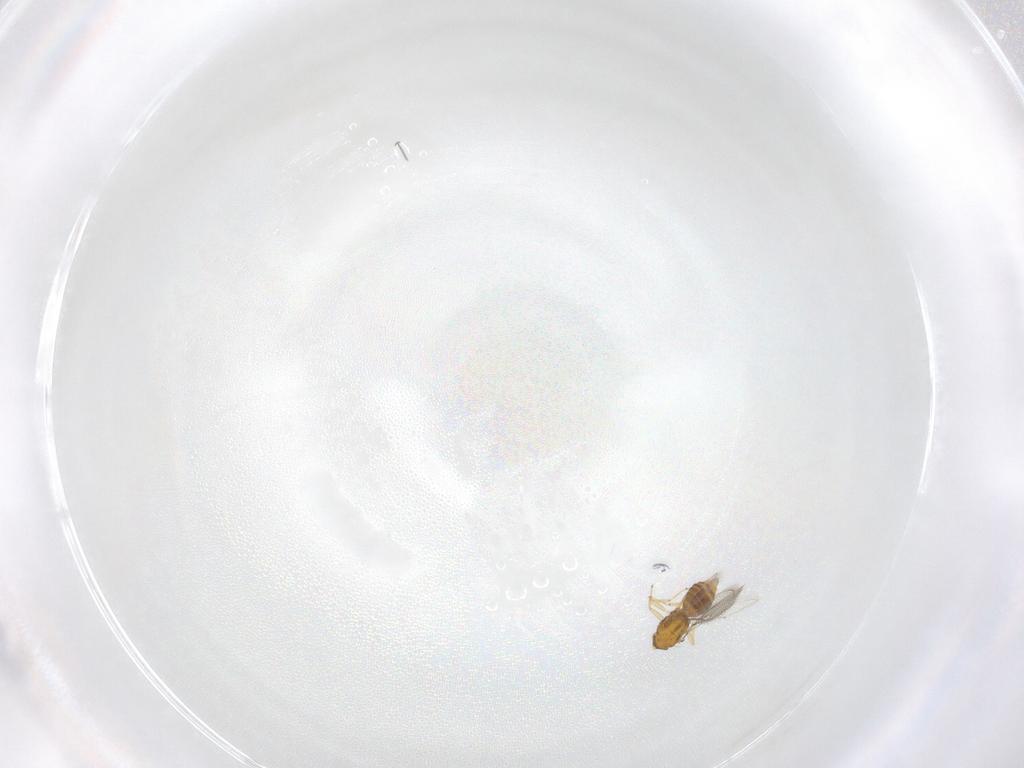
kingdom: Animalia
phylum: Arthropoda
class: Insecta
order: Hymenoptera
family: Eulophidae
